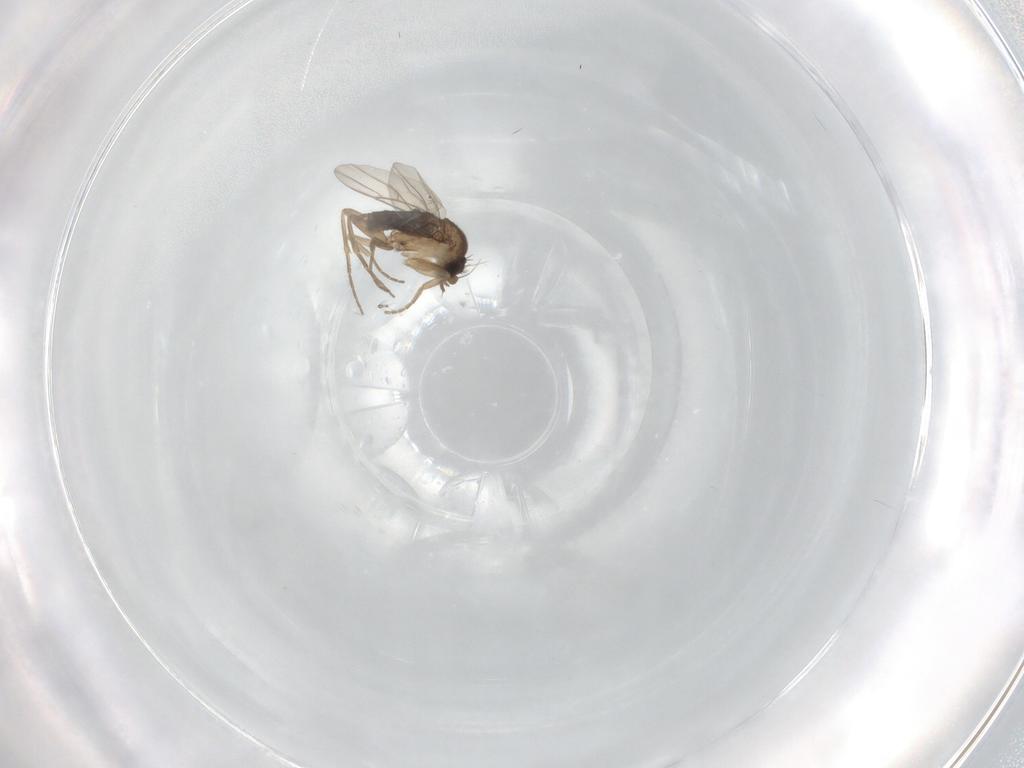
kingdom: Animalia
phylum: Arthropoda
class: Insecta
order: Diptera
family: Phoridae
